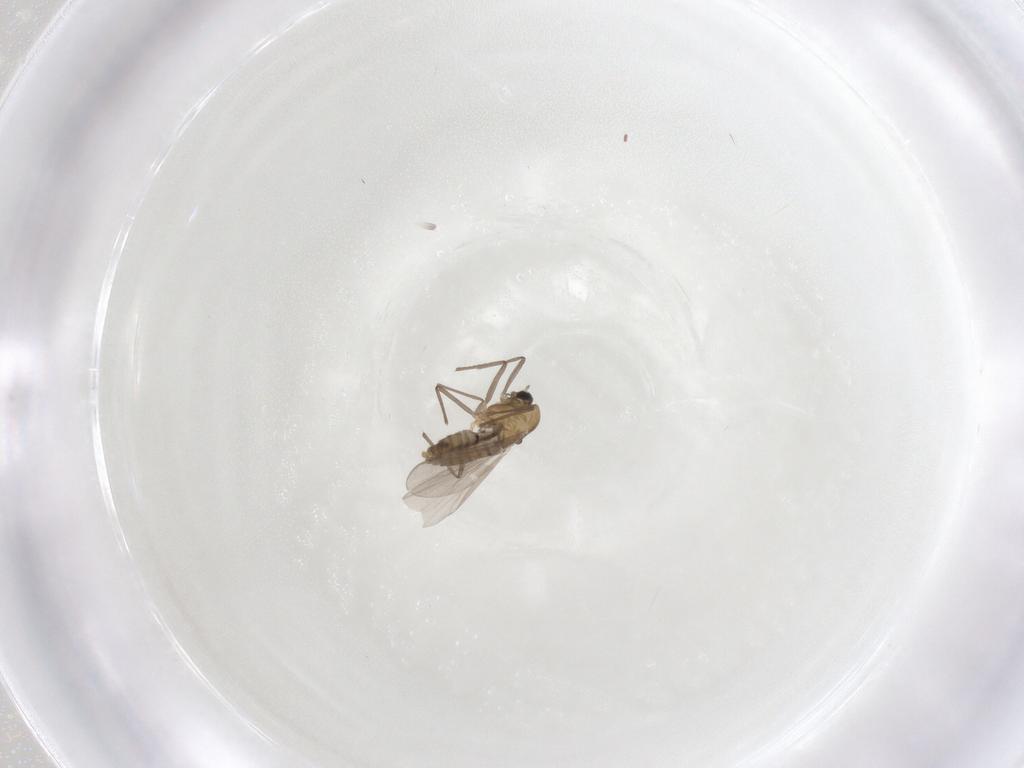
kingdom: Animalia
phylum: Arthropoda
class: Insecta
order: Diptera
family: Chironomidae
